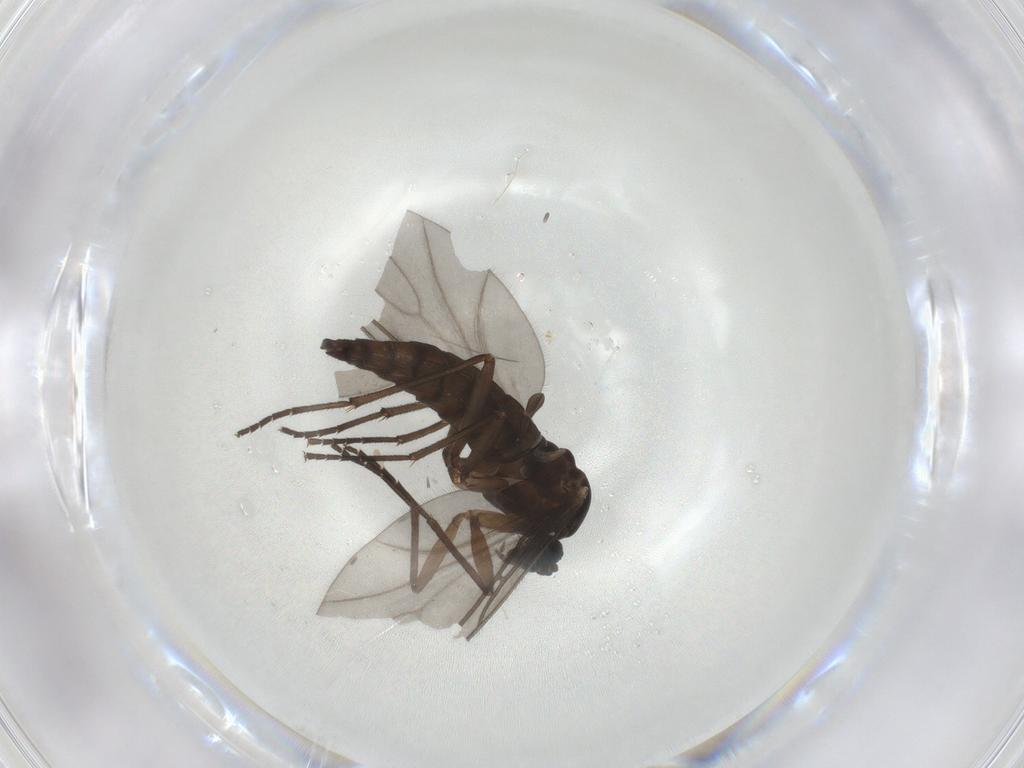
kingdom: Animalia
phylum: Arthropoda
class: Insecta
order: Diptera
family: Sciaridae
